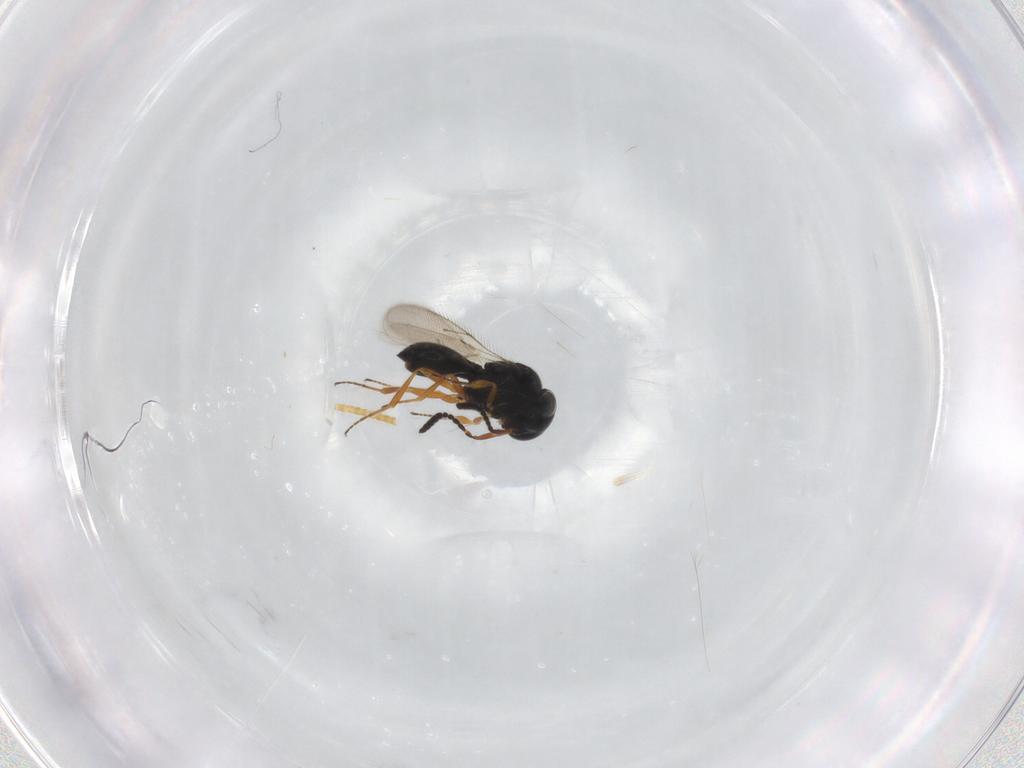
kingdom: Animalia
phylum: Arthropoda
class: Insecta
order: Hymenoptera
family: Scelionidae
